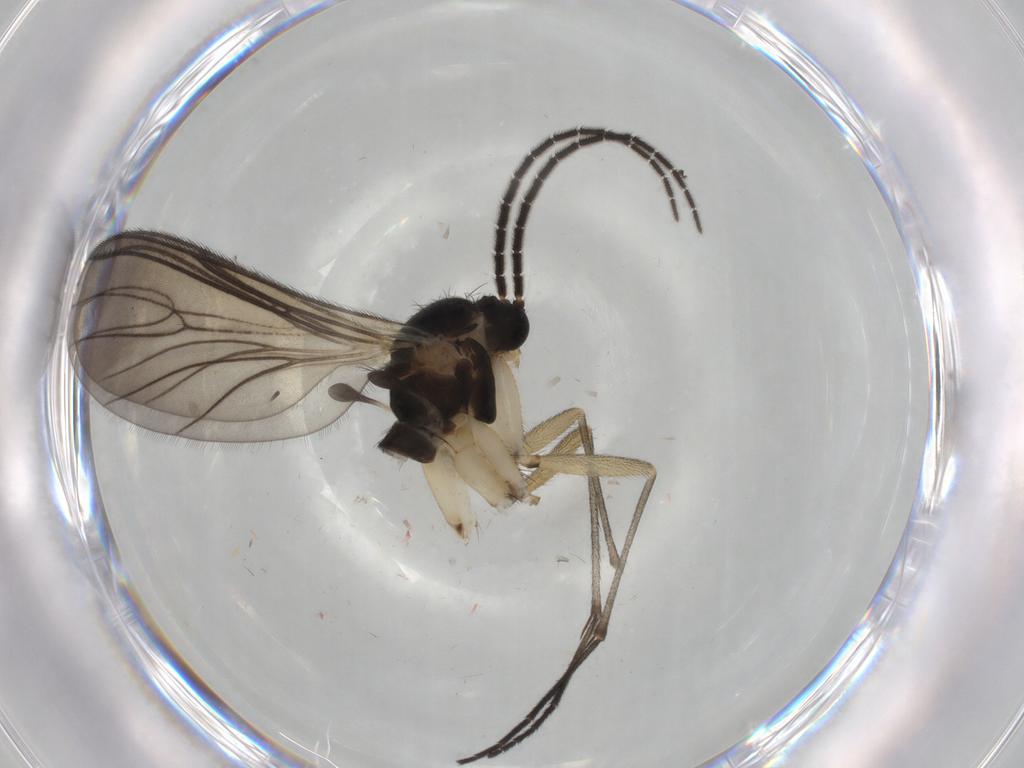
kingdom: Animalia
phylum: Arthropoda
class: Insecta
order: Diptera
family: Sciaridae
